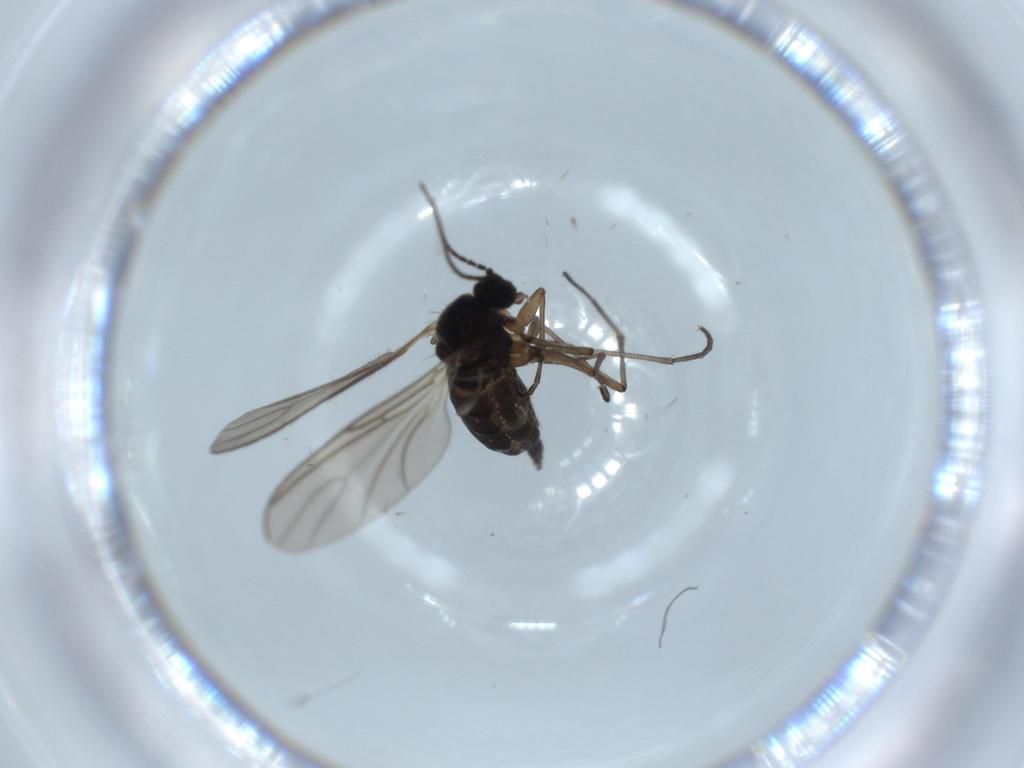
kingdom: Animalia
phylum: Arthropoda
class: Insecta
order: Diptera
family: Sciaridae
